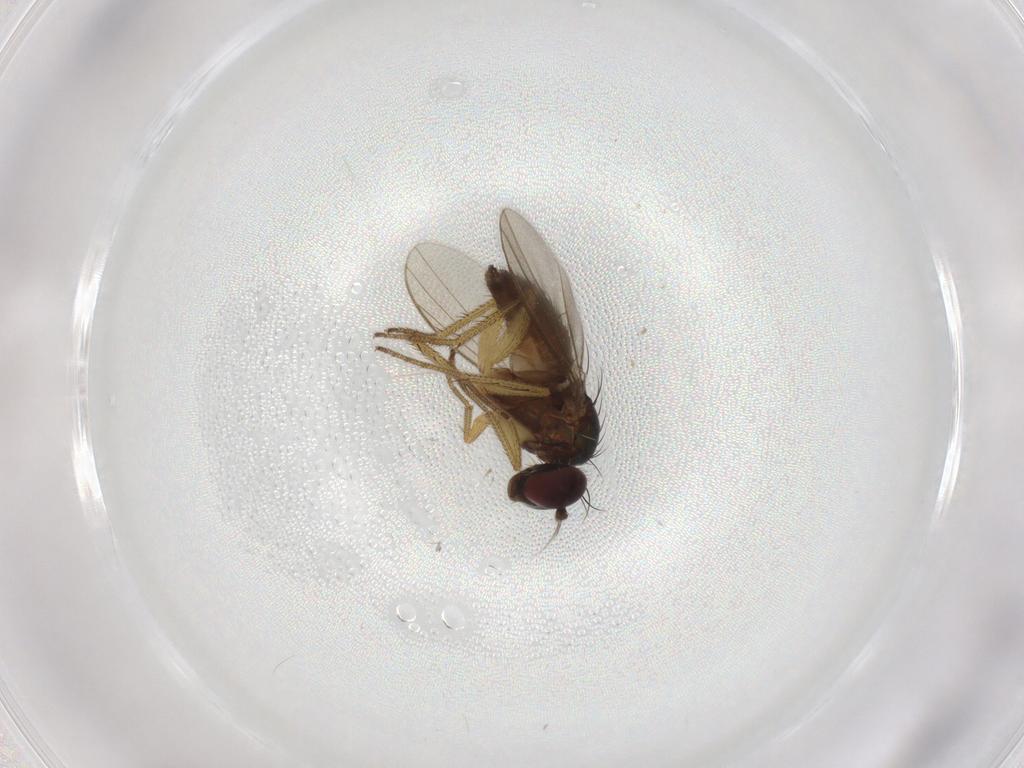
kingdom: Animalia
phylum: Arthropoda
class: Insecta
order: Diptera
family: Dolichopodidae
